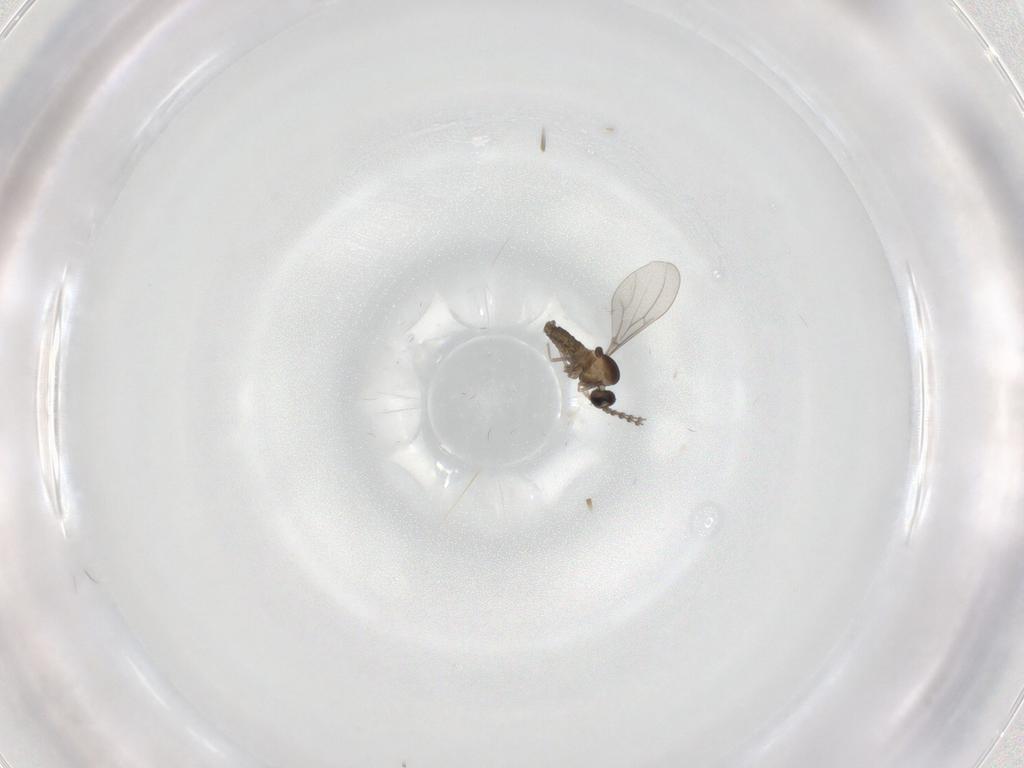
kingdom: Animalia
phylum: Arthropoda
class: Insecta
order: Diptera
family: Cecidomyiidae
